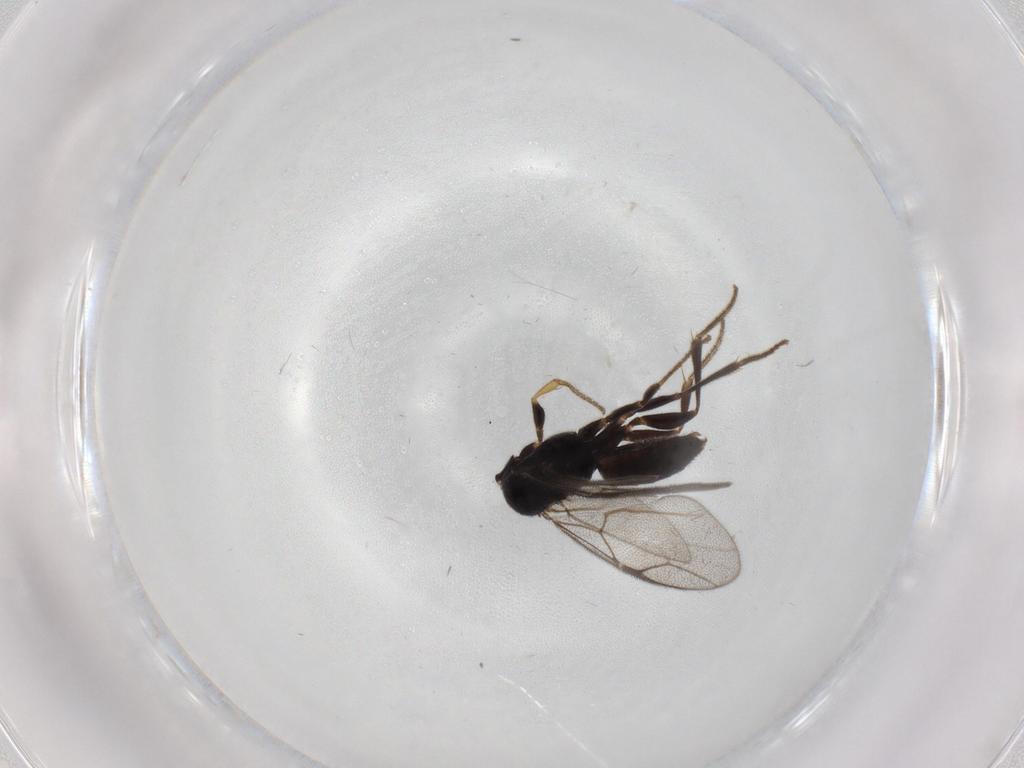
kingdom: Animalia
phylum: Arthropoda
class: Insecta
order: Hymenoptera
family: Dryinidae
